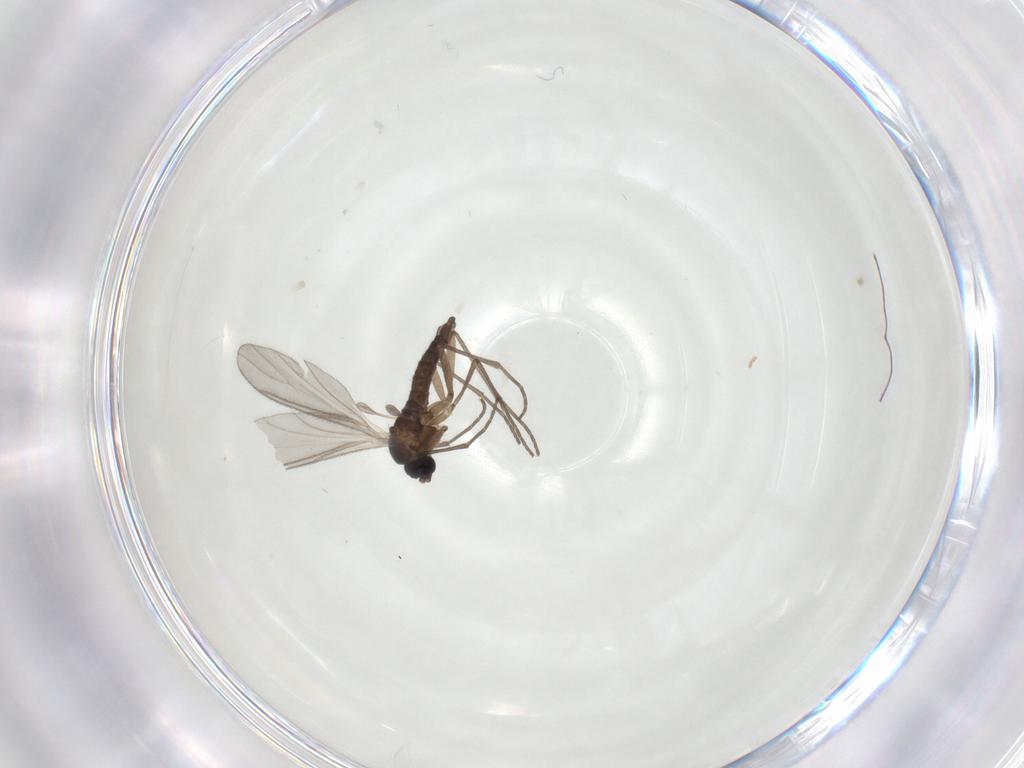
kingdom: Animalia
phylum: Arthropoda
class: Insecta
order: Diptera
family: Sciaridae
